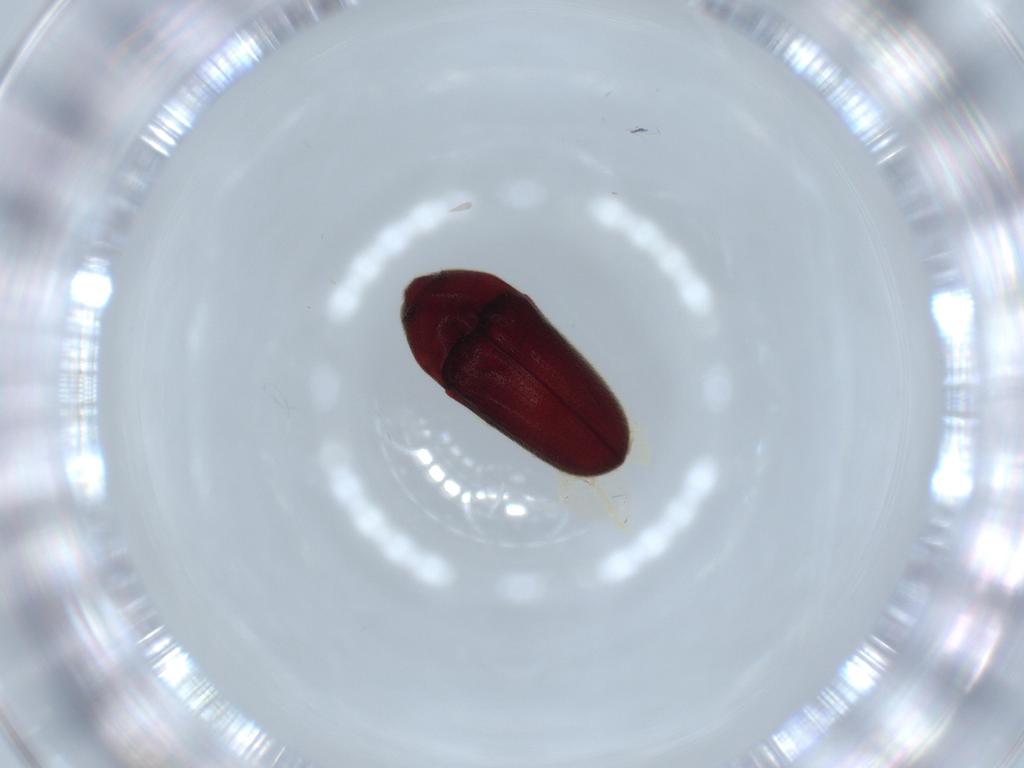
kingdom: Animalia
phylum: Arthropoda
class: Insecta
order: Coleoptera
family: Throscidae
